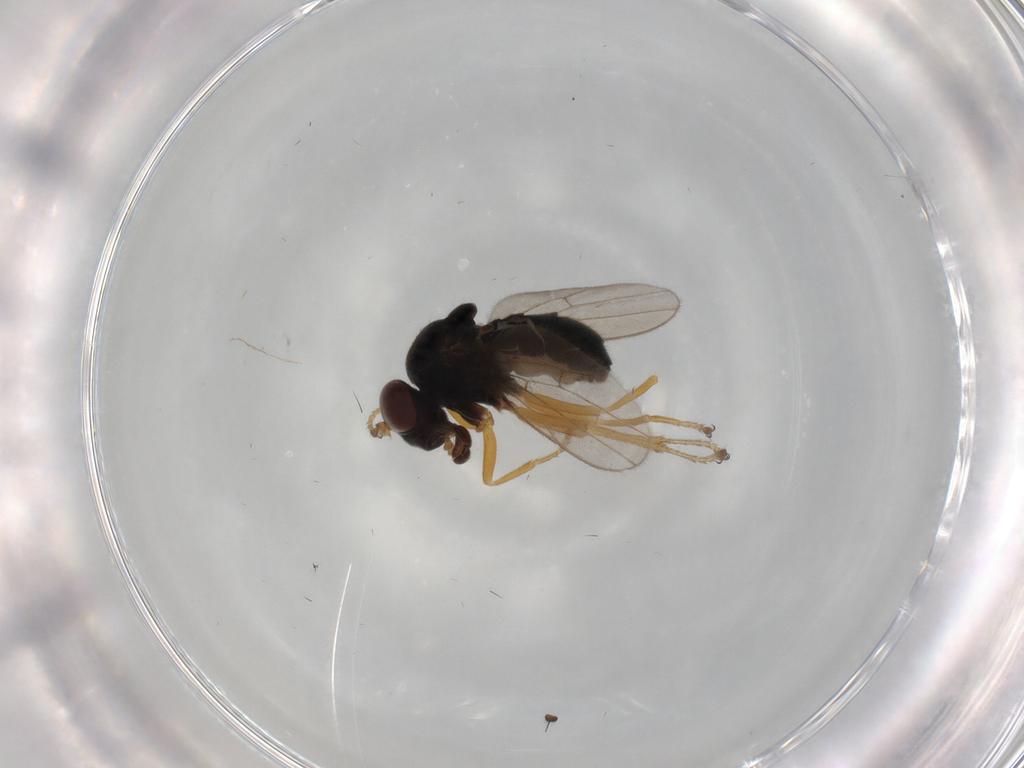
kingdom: Animalia
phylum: Arthropoda
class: Insecta
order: Diptera
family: Ephydridae
